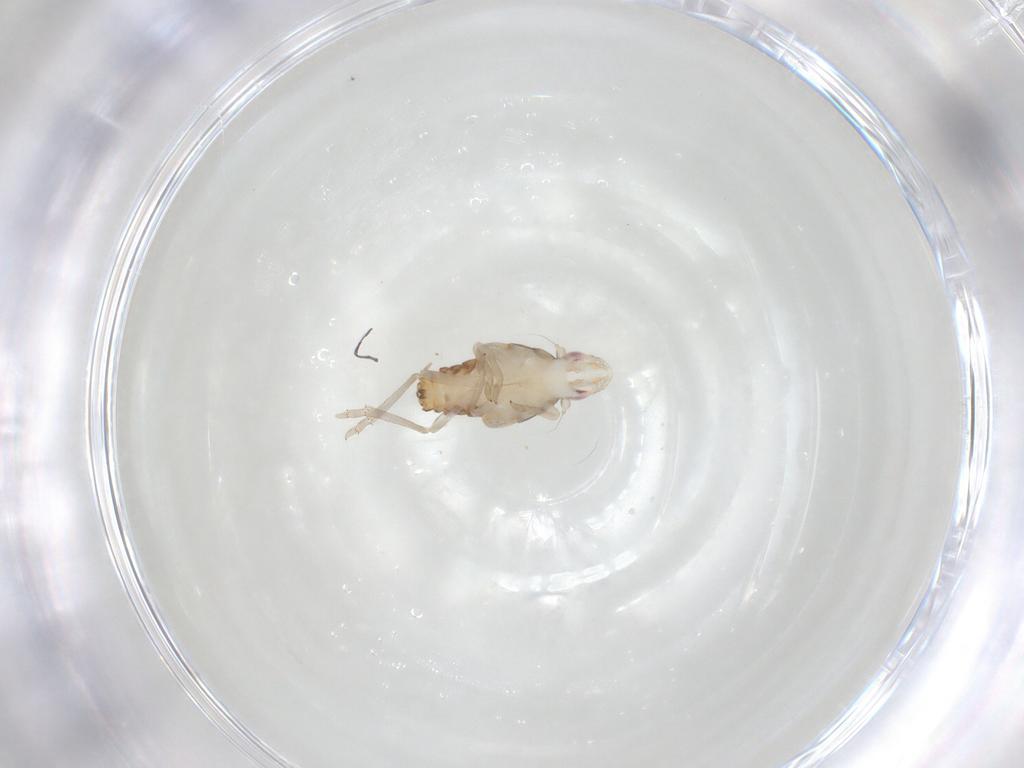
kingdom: Animalia
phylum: Arthropoda
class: Insecta
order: Hemiptera
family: Tropiduchidae
